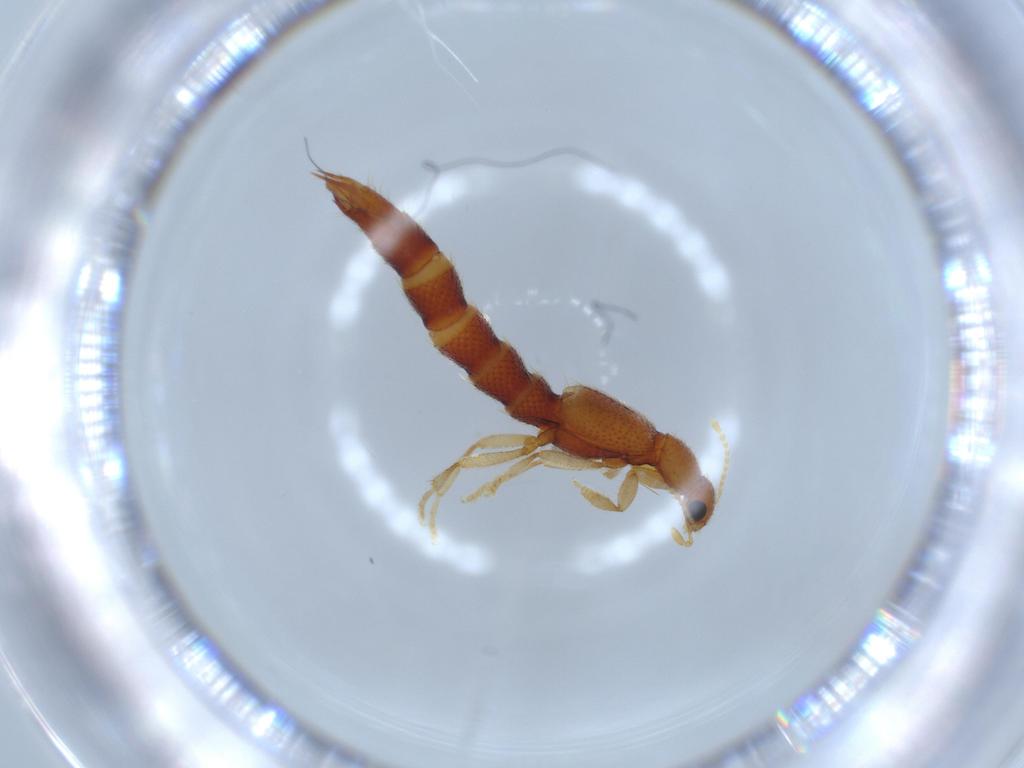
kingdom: Animalia
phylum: Arthropoda
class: Insecta
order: Coleoptera
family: Staphylinidae
